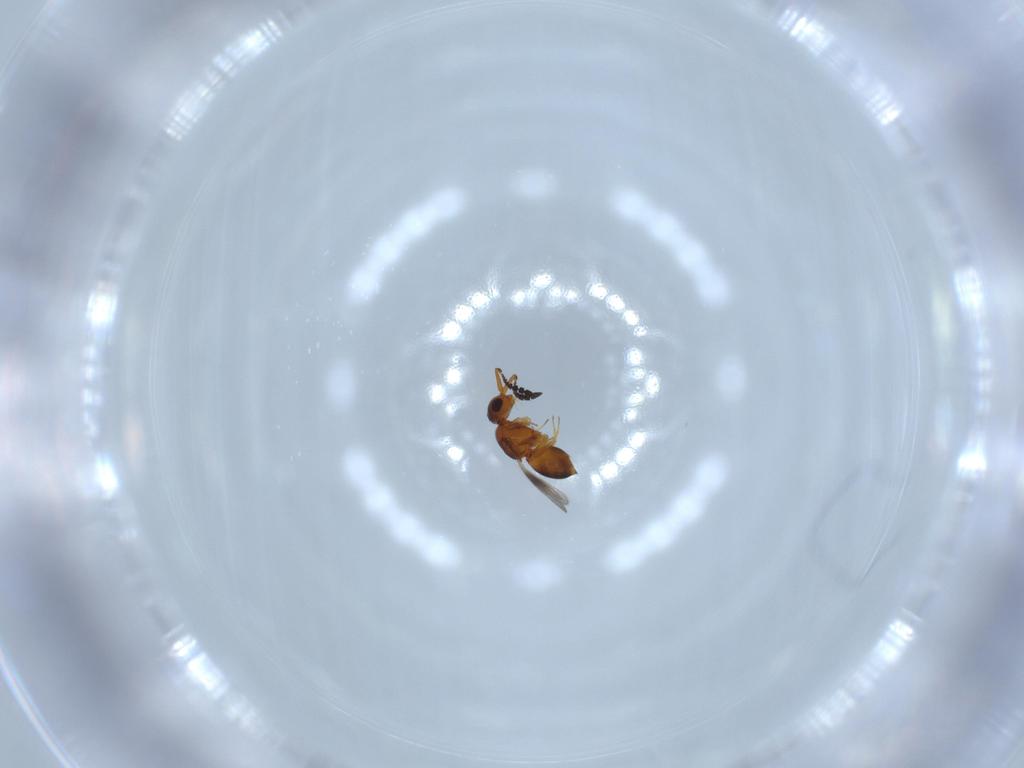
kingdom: Animalia
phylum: Arthropoda
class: Insecta
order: Hymenoptera
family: Ceraphronidae
